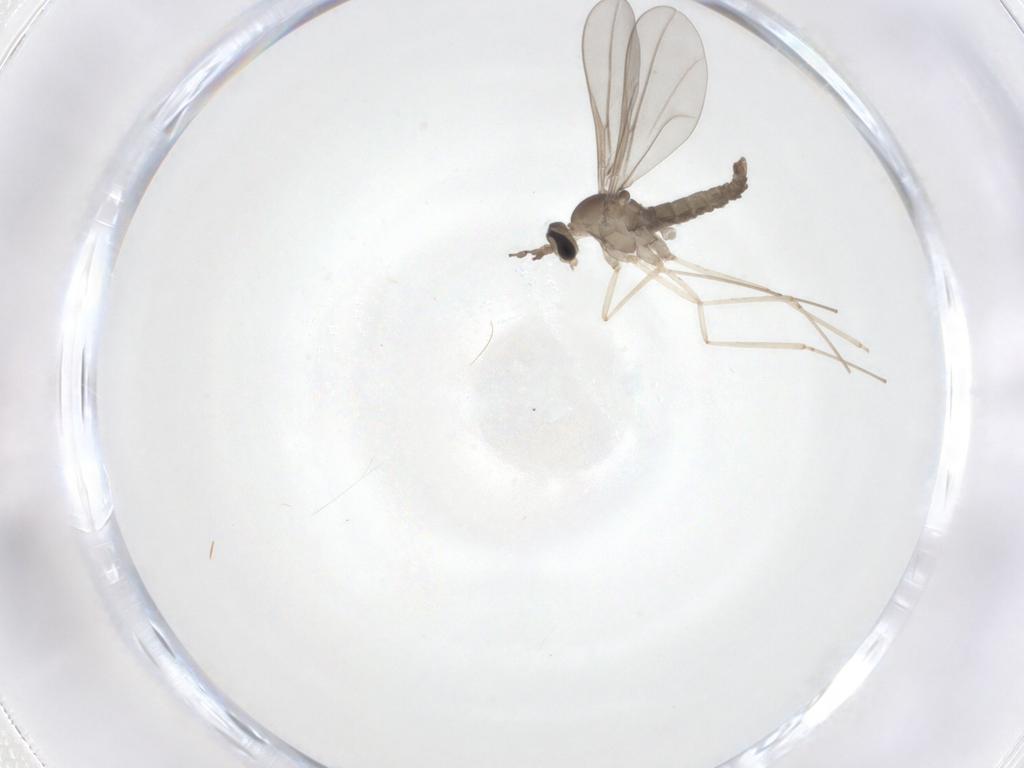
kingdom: Animalia
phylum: Arthropoda
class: Insecta
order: Diptera
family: Cecidomyiidae
